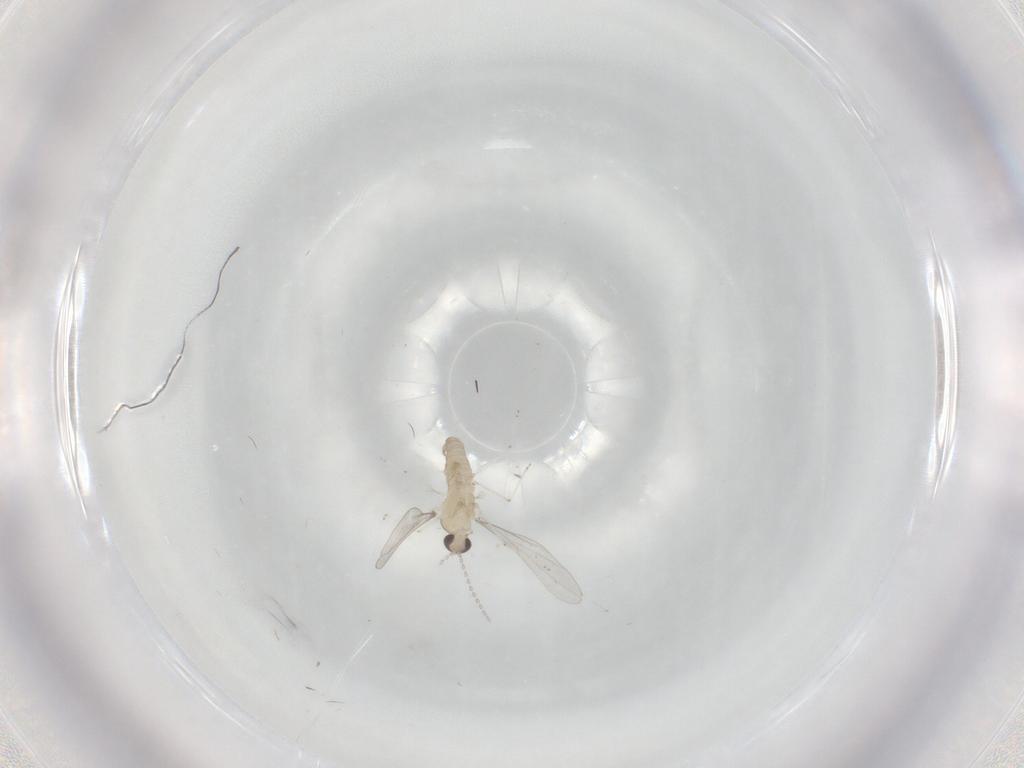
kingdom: Animalia
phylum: Arthropoda
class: Insecta
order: Diptera
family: Cecidomyiidae
